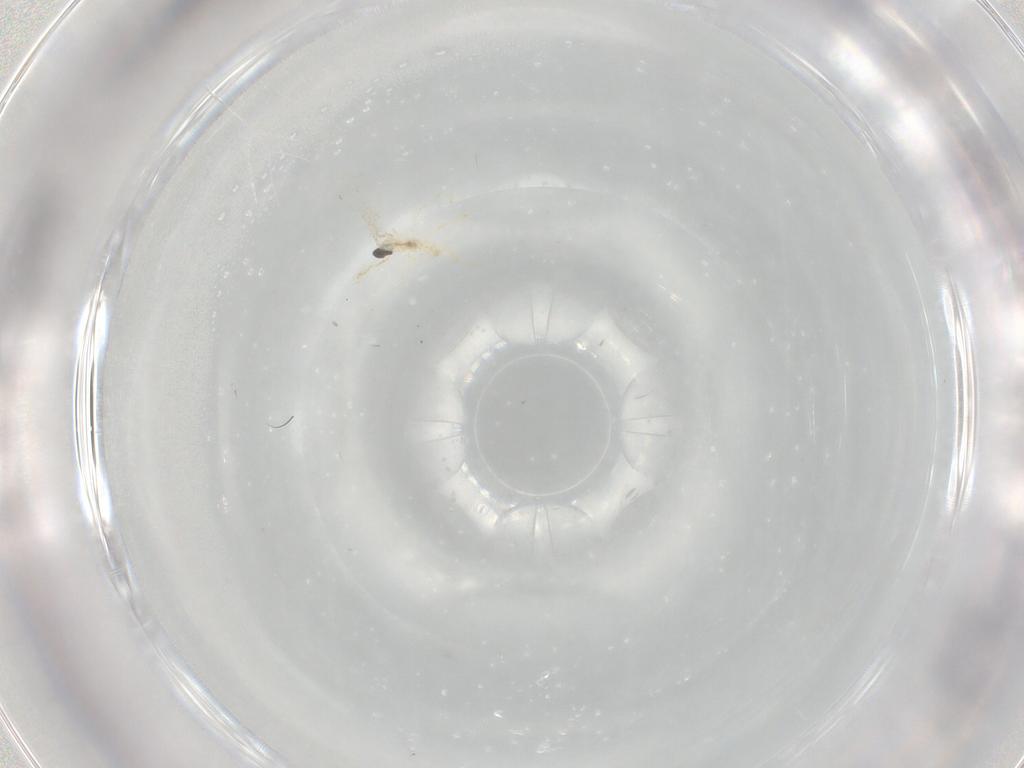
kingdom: Animalia
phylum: Arthropoda
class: Insecta
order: Diptera
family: Cecidomyiidae
